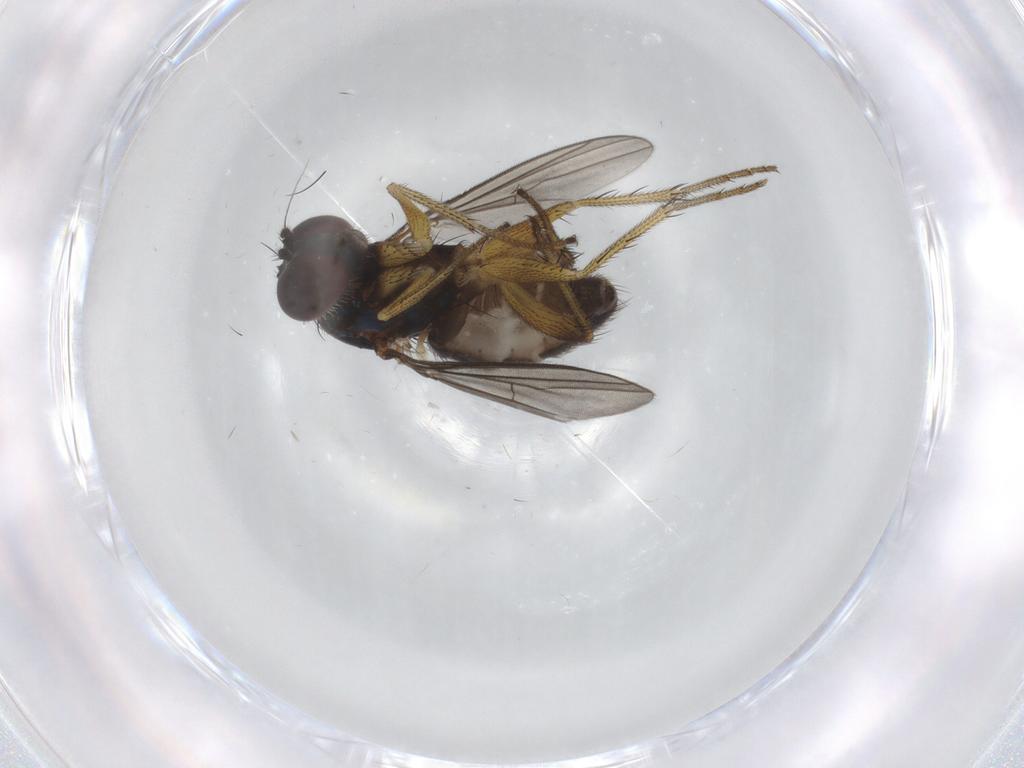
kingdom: Animalia
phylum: Arthropoda
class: Insecta
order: Diptera
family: Dolichopodidae
